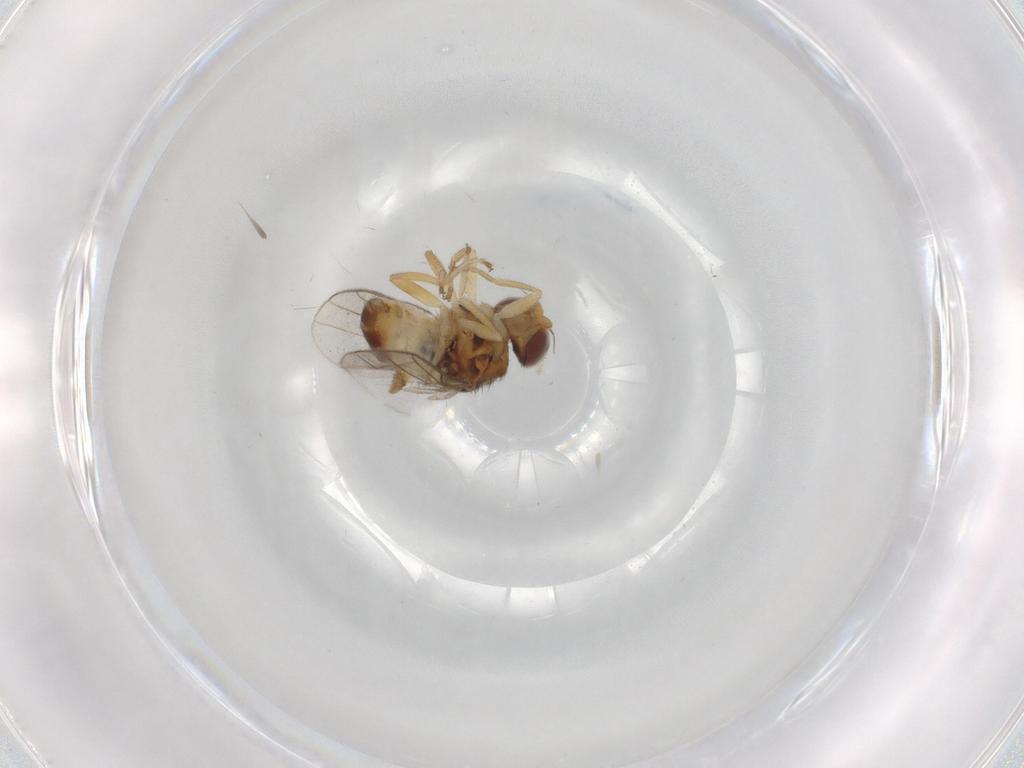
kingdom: Animalia
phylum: Arthropoda
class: Insecta
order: Diptera
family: Chloropidae
